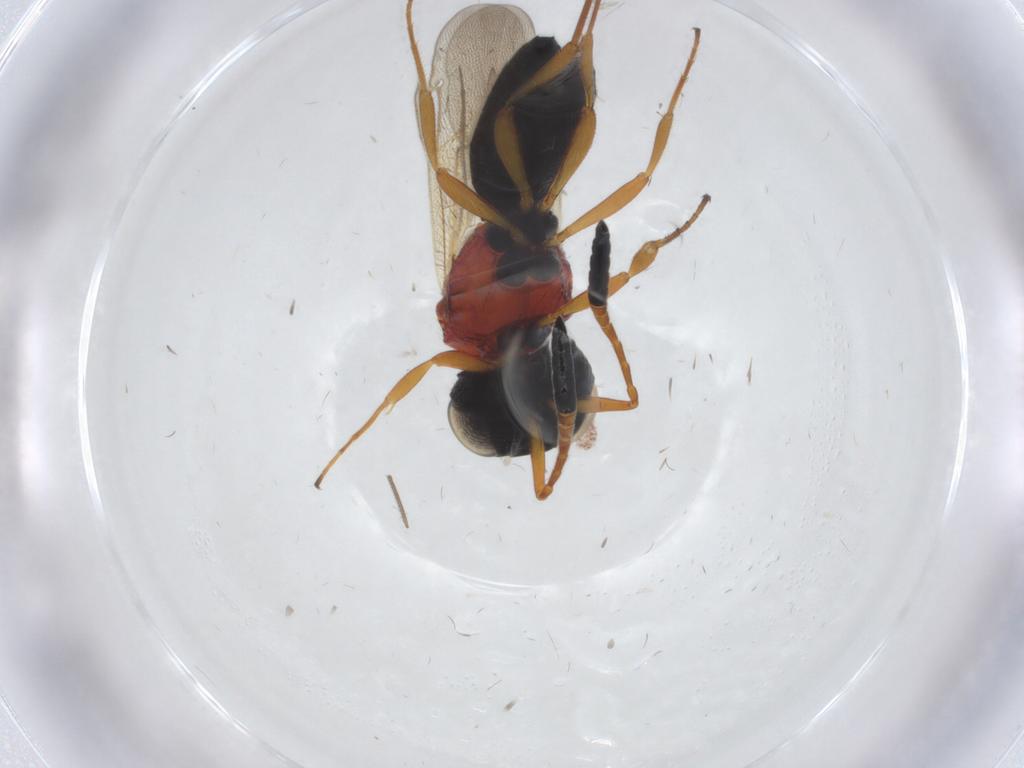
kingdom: Animalia
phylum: Arthropoda
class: Insecta
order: Hymenoptera
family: Scelionidae
